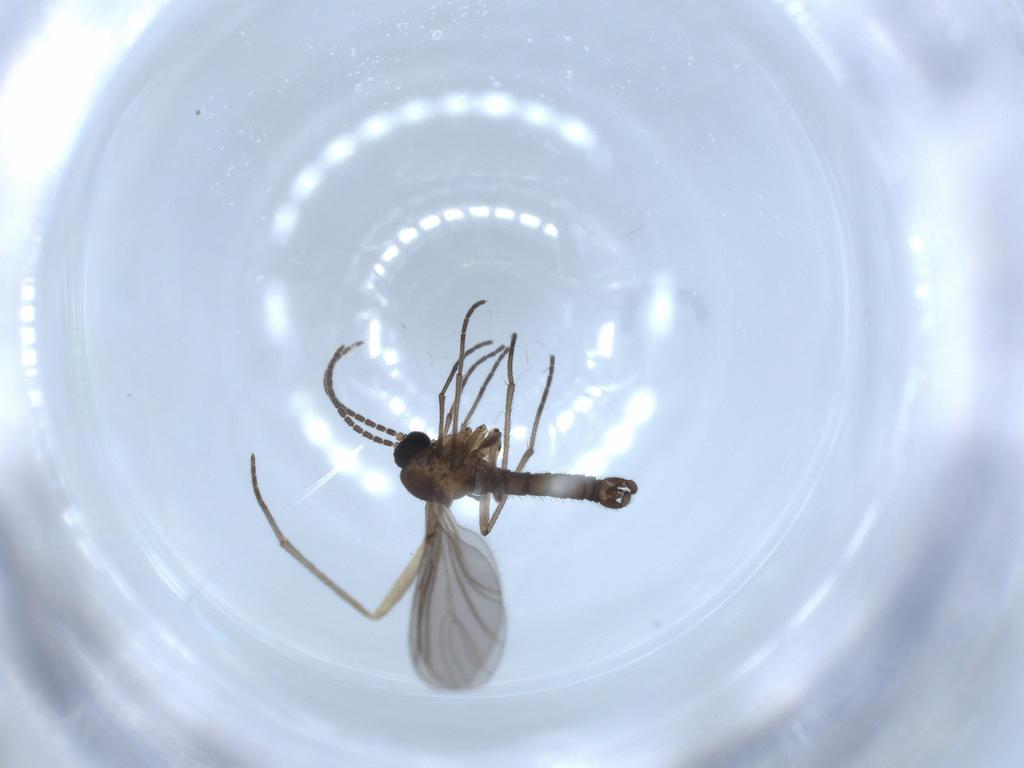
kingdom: Animalia
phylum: Arthropoda
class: Insecta
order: Diptera
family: Sciaridae
